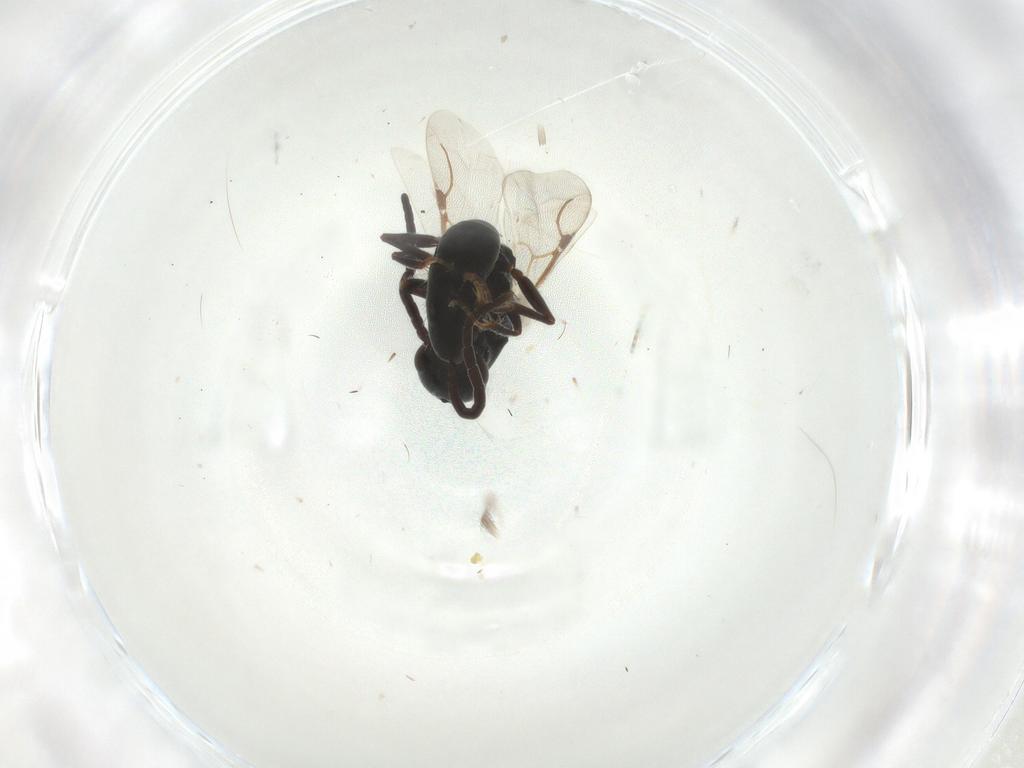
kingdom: Animalia
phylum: Arthropoda
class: Insecta
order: Hymenoptera
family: Bethylidae
